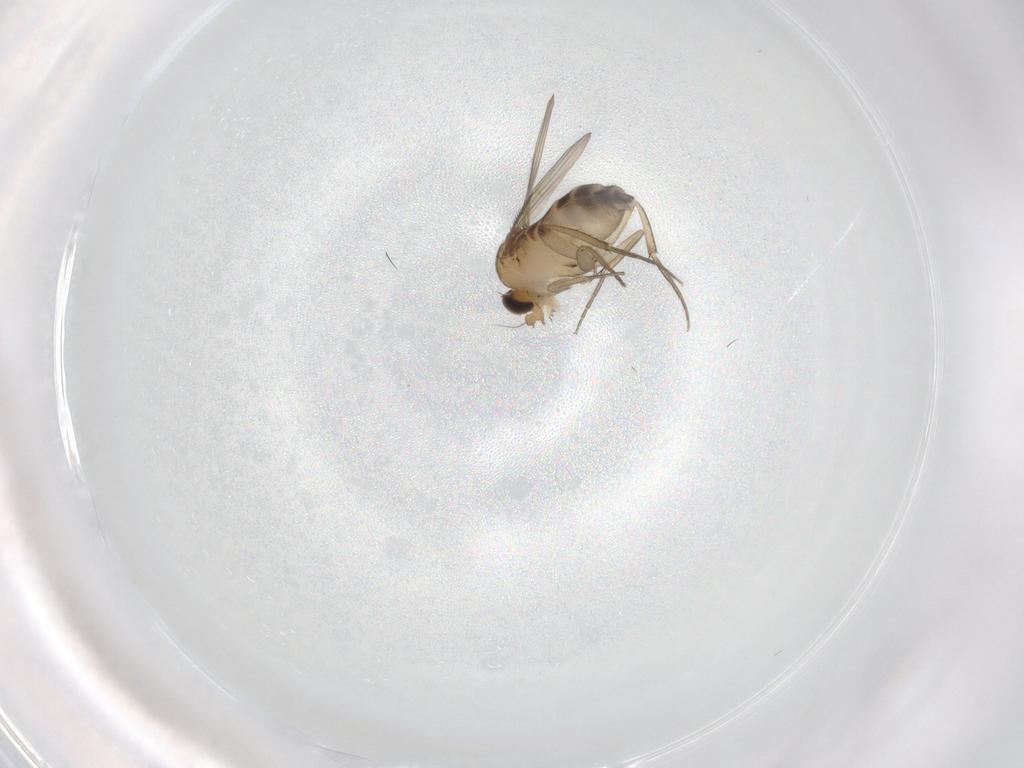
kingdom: Animalia
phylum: Arthropoda
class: Insecta
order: Diptera
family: Phoridae
